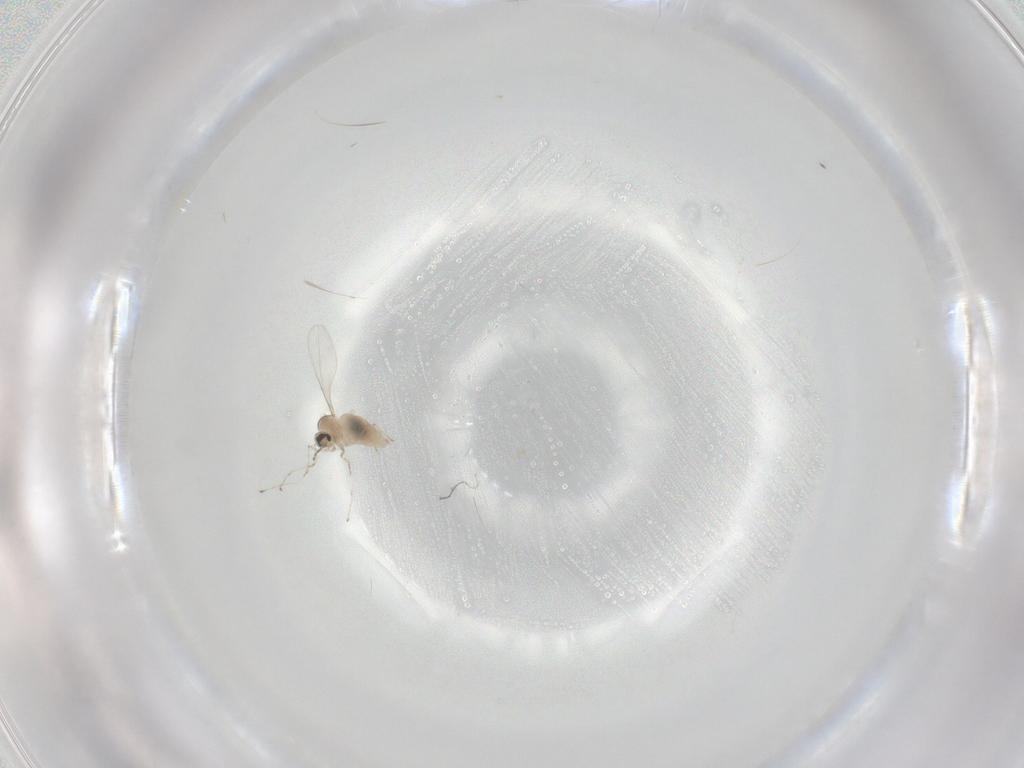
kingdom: Animalia
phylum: Arthropoda
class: Insecta
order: Diptera
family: Cecidomyiidae
